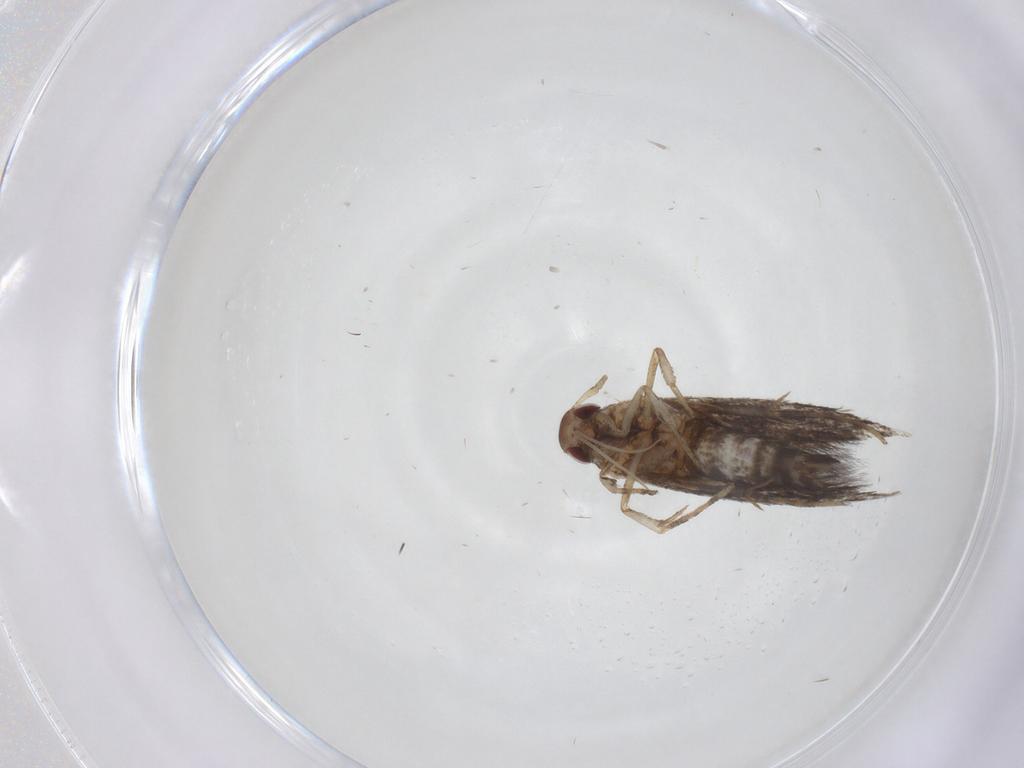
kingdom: Animalia
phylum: Arthropoda
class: Insecta
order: Lepidoptera
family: Cosmopterigidae
